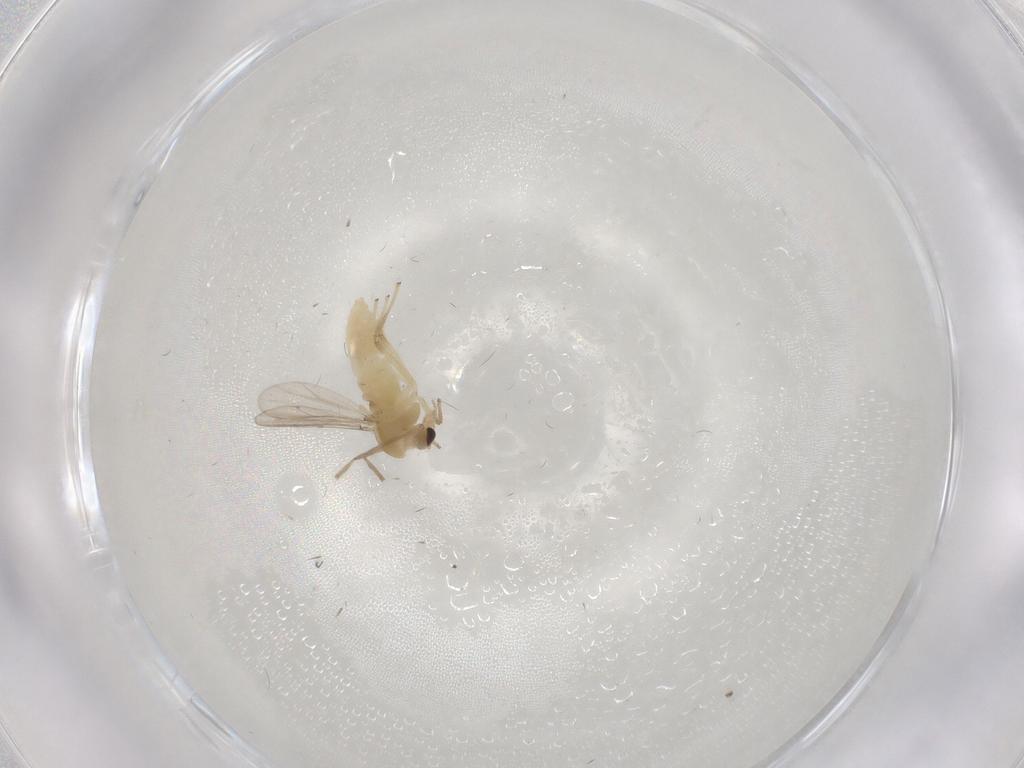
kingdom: Animalia
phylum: Arthropoda
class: Insecta
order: Diptera
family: Chironomidae
